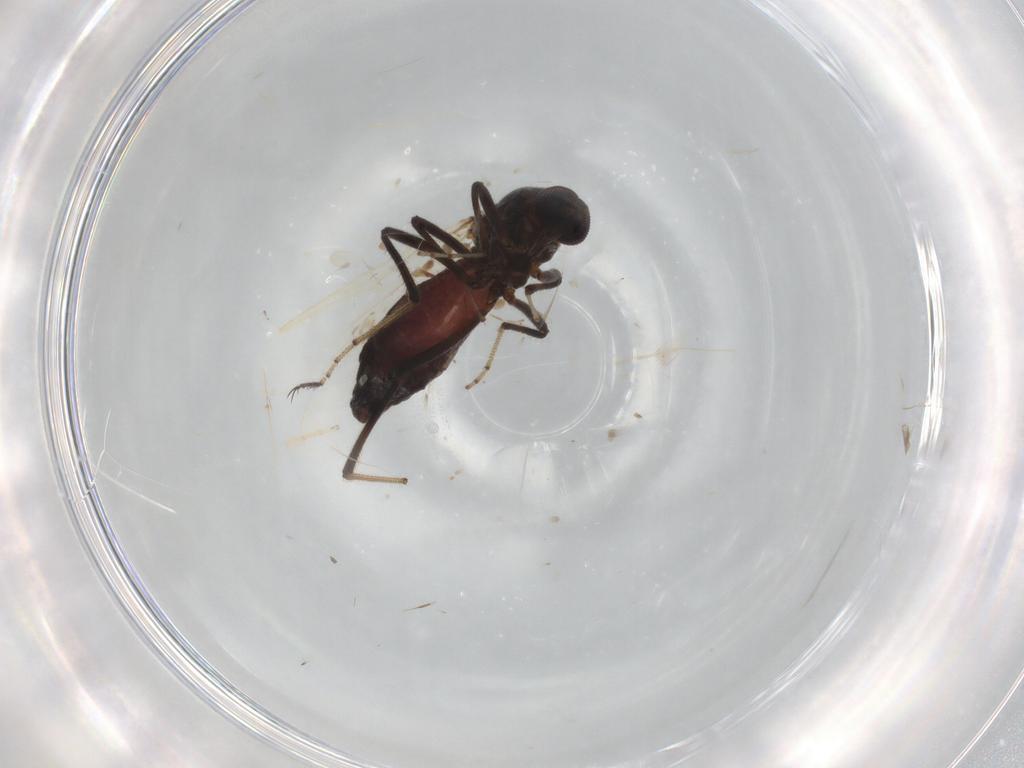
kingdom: Animalia
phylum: Arthropoda
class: Insecta
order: Diptera
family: Ceratopogonidae
